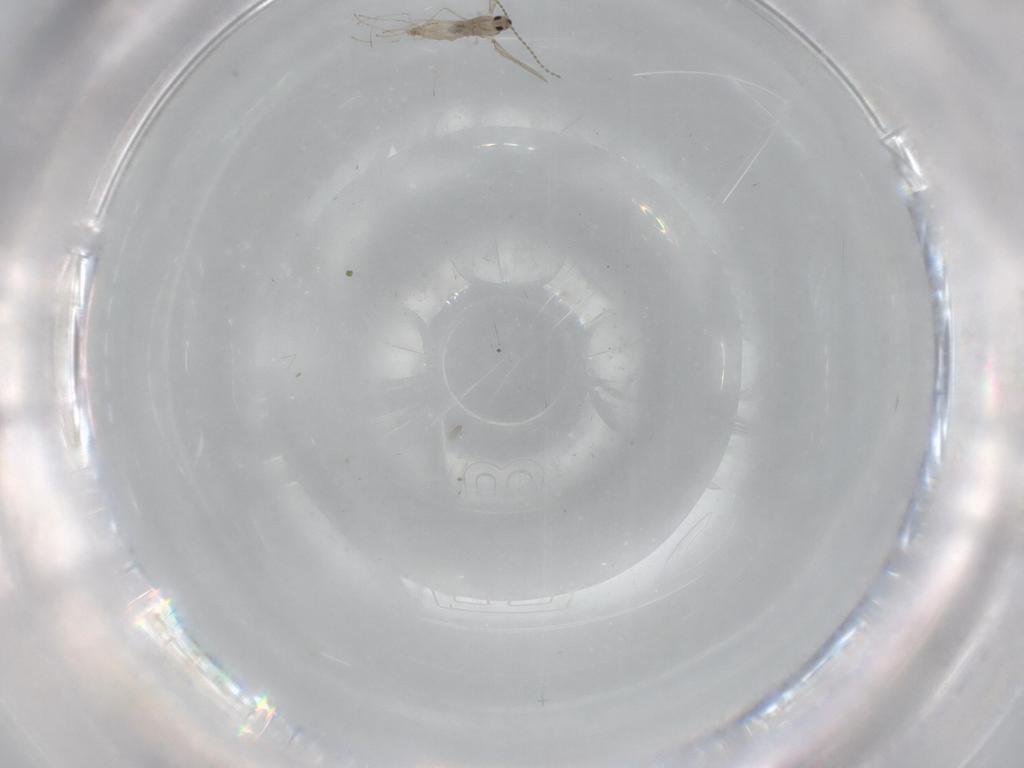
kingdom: Animalia
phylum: Arthropoda
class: Insecta
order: Diptera
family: Cecidomyiidae
